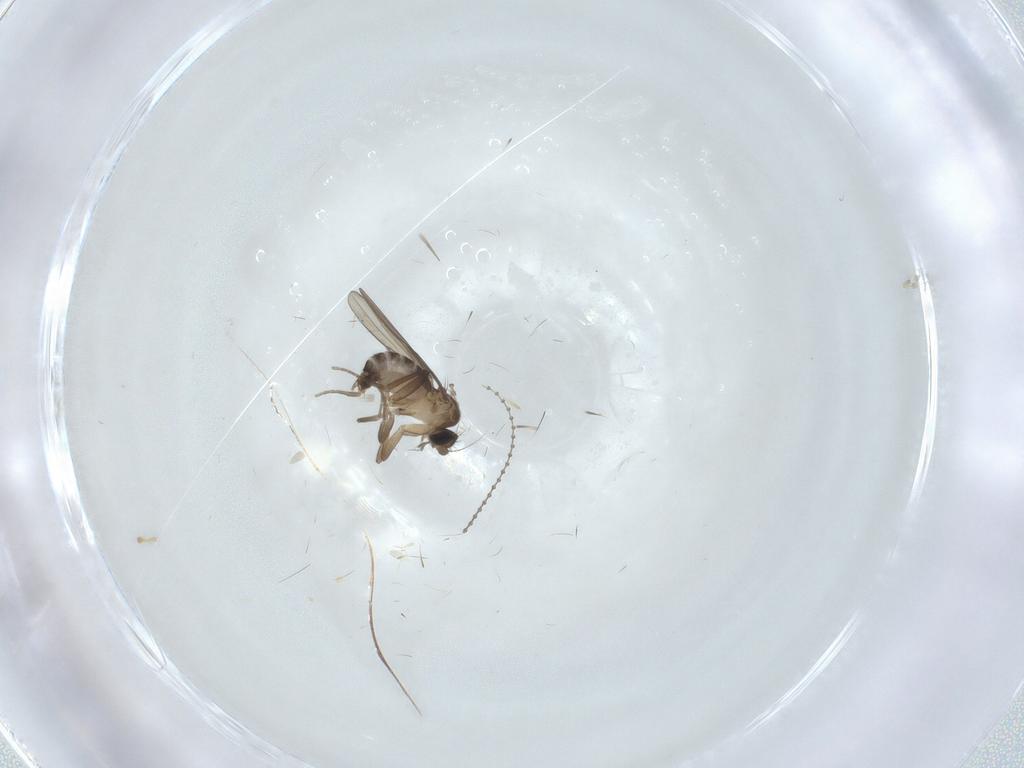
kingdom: Animalia
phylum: Arthropoda
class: Insecta
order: Diptera
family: Phoridae
